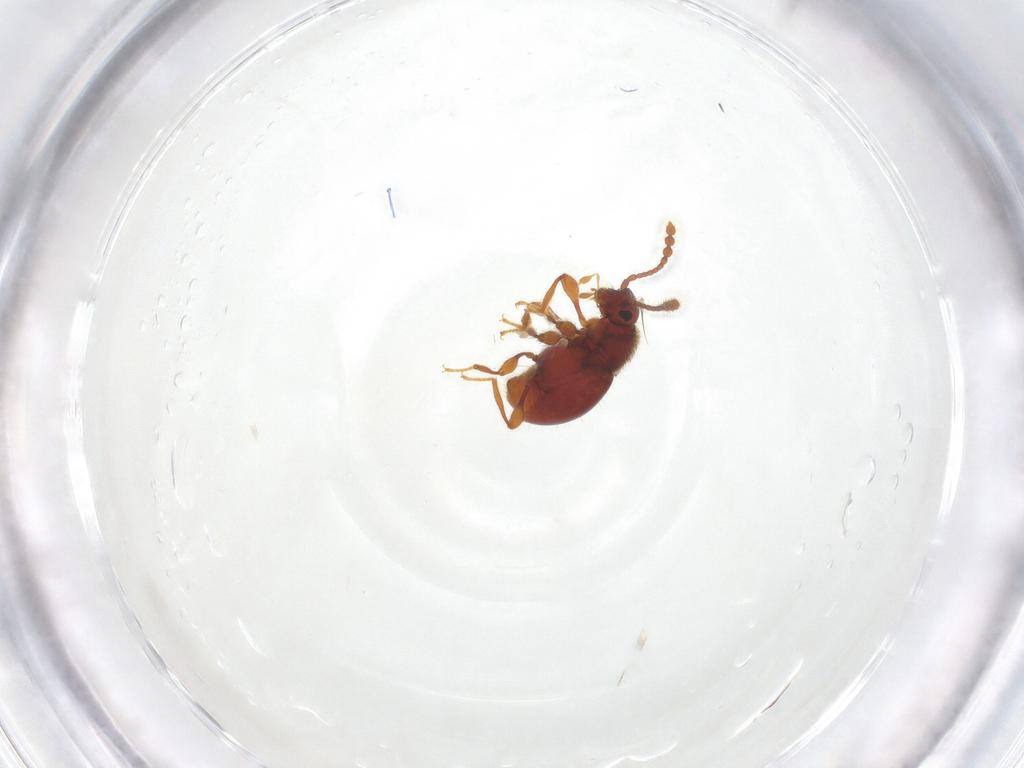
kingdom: Animalia
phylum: Arthropoda
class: Insecta
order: Coleoptera
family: Staphylinidae
